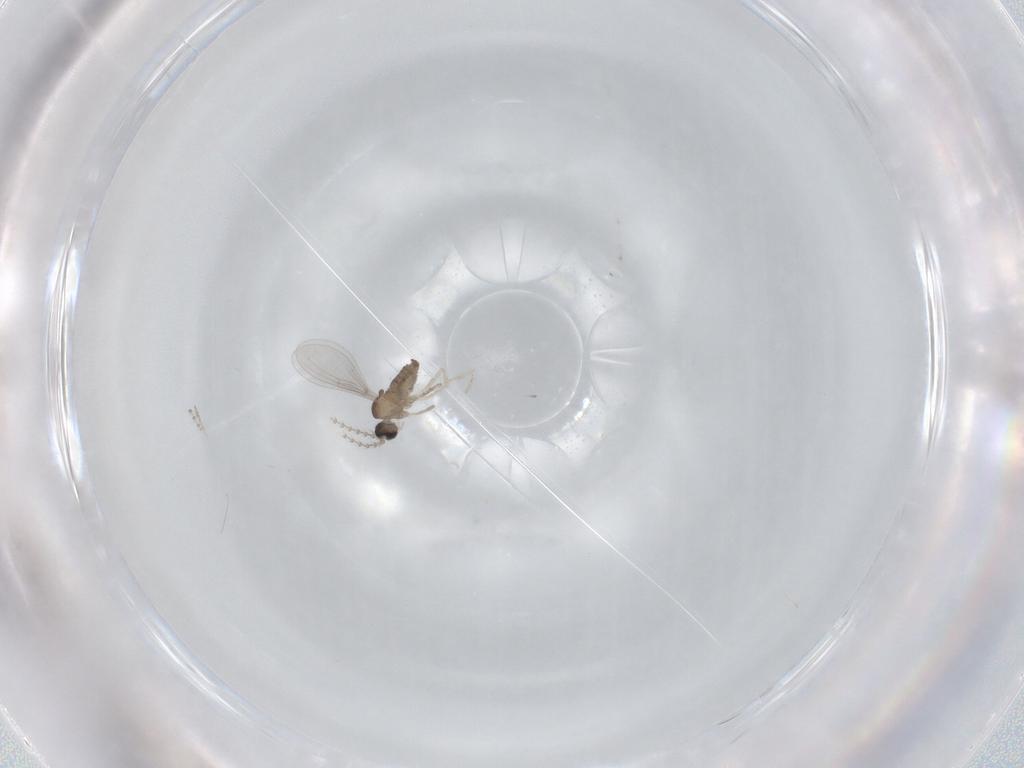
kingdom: Animalia
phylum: Arthropoda
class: Insecta
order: Diptera
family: Cecidomyiidae
